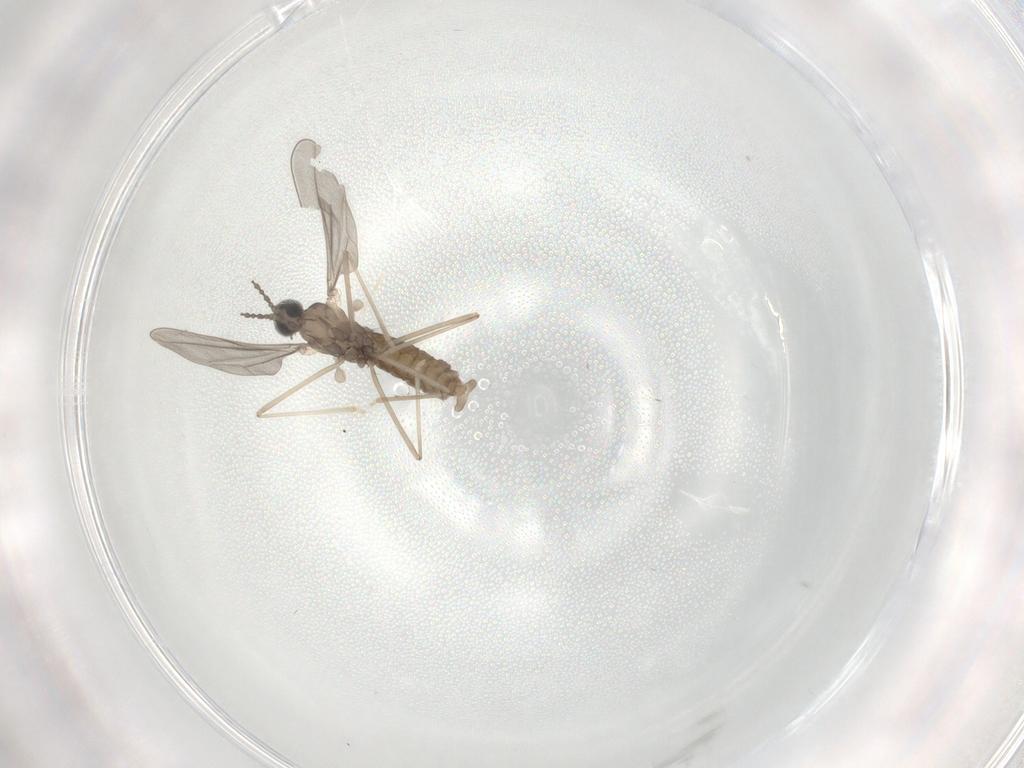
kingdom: Animalia
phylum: Arthropoda
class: Insecta
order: Diptera
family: Cecidomyiidae
